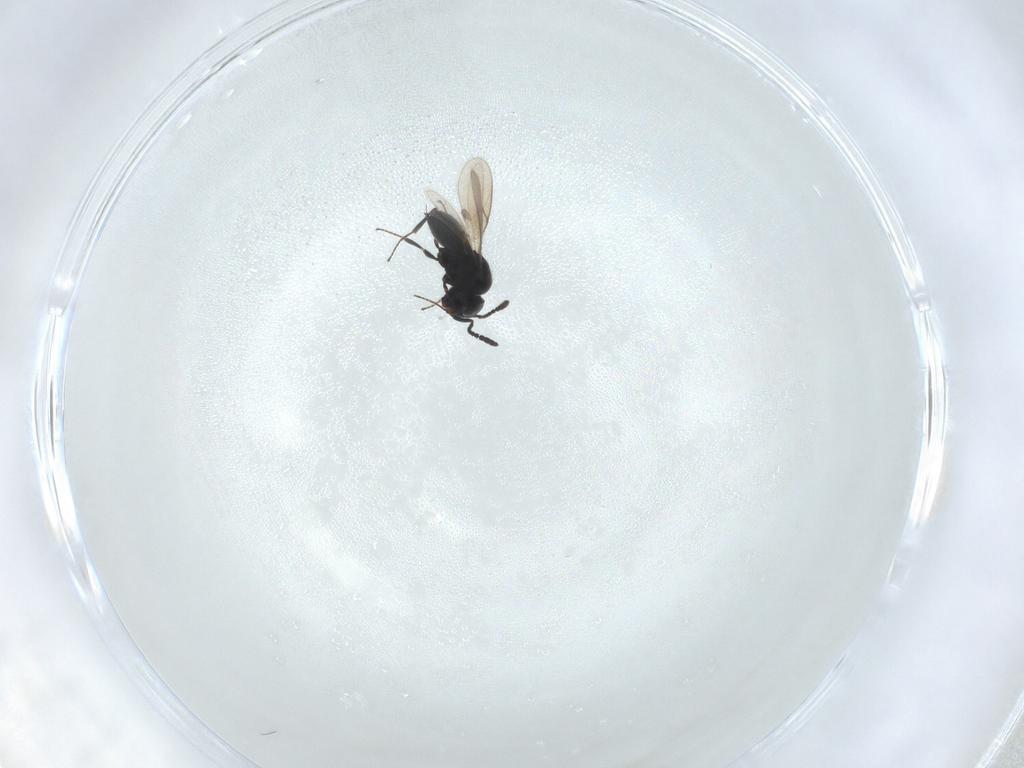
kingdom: Animalia
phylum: Arthropoda
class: Insecta
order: Hymenoptera
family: Scelionidae
